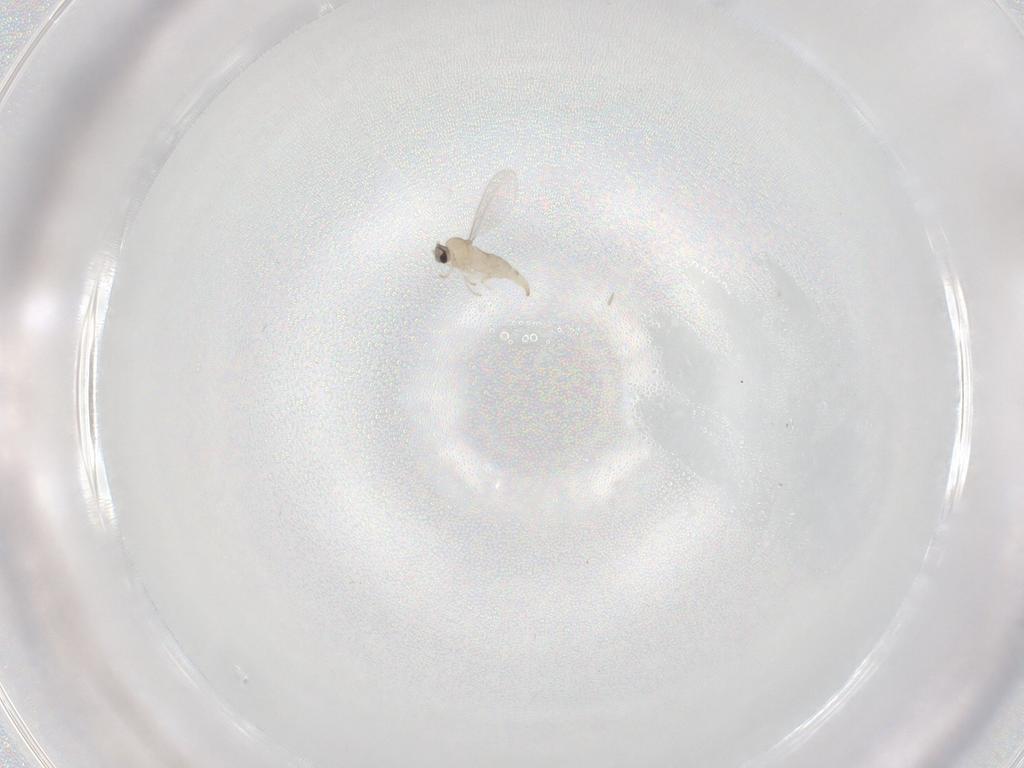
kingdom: Animalia
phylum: Arthropoda
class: Insecta
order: Diptera
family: Cecidomyiidae
